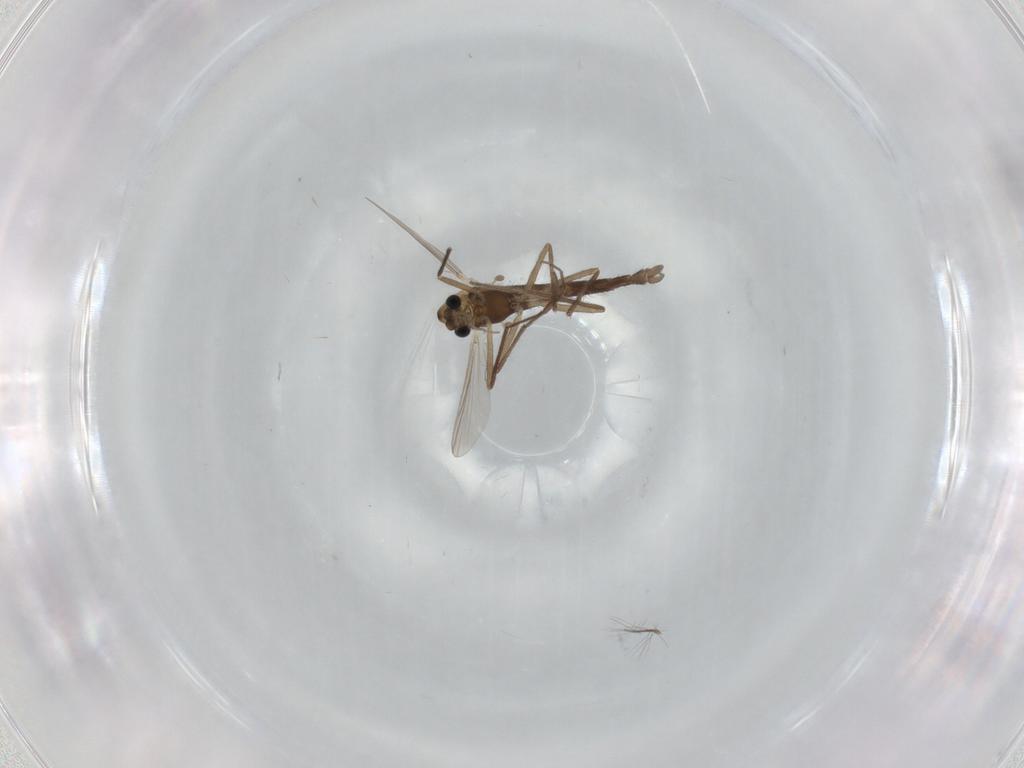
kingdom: Animalia
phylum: Arthropoda
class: Insecta
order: Diptera
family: Chironomidae
